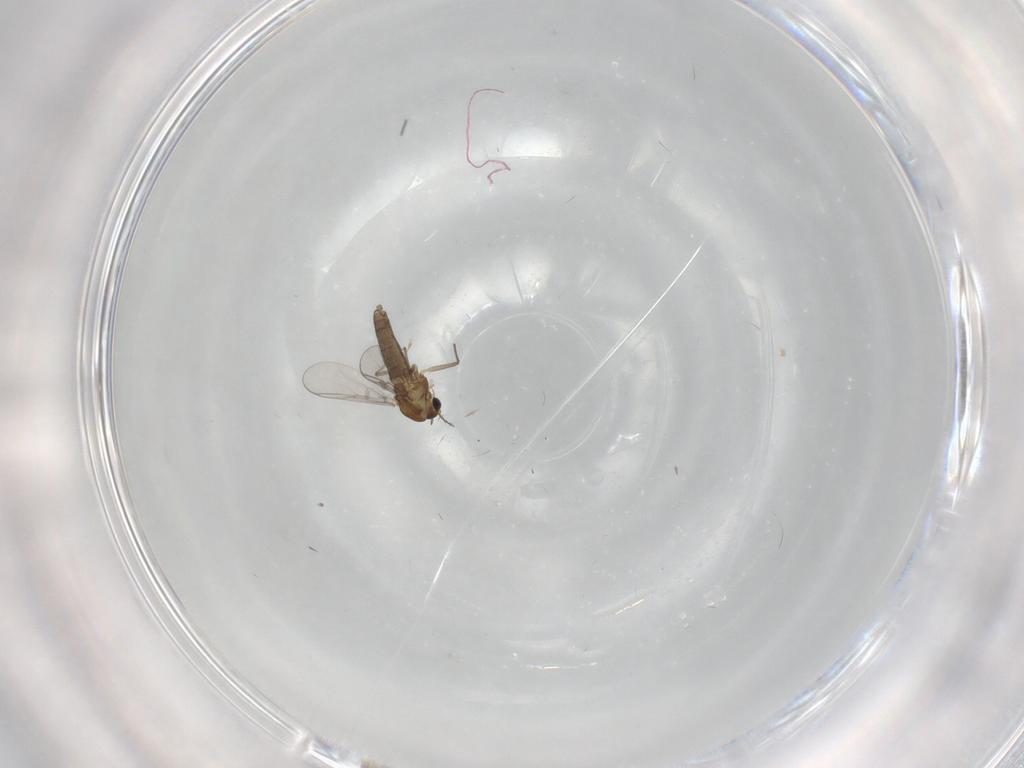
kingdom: Animalia
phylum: Arthropoda
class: Insecta
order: Diptera
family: Chironomidae
